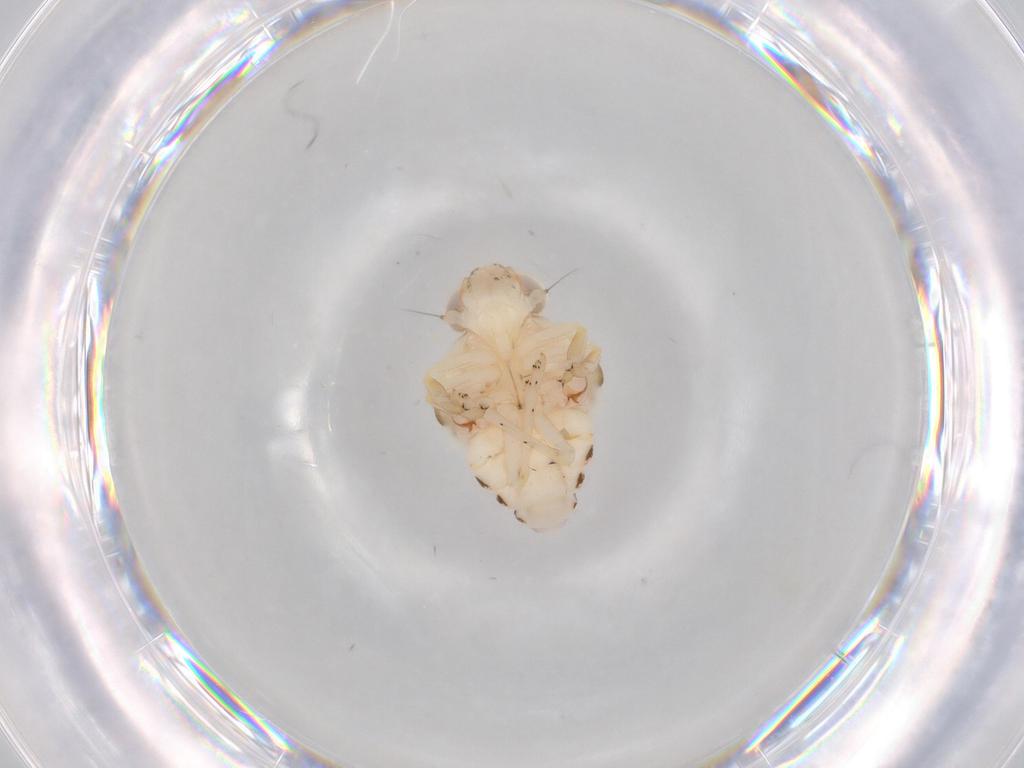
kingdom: Animalia
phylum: Arthropoda
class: Insecta
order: Hemiptera
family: Nogodinidae
